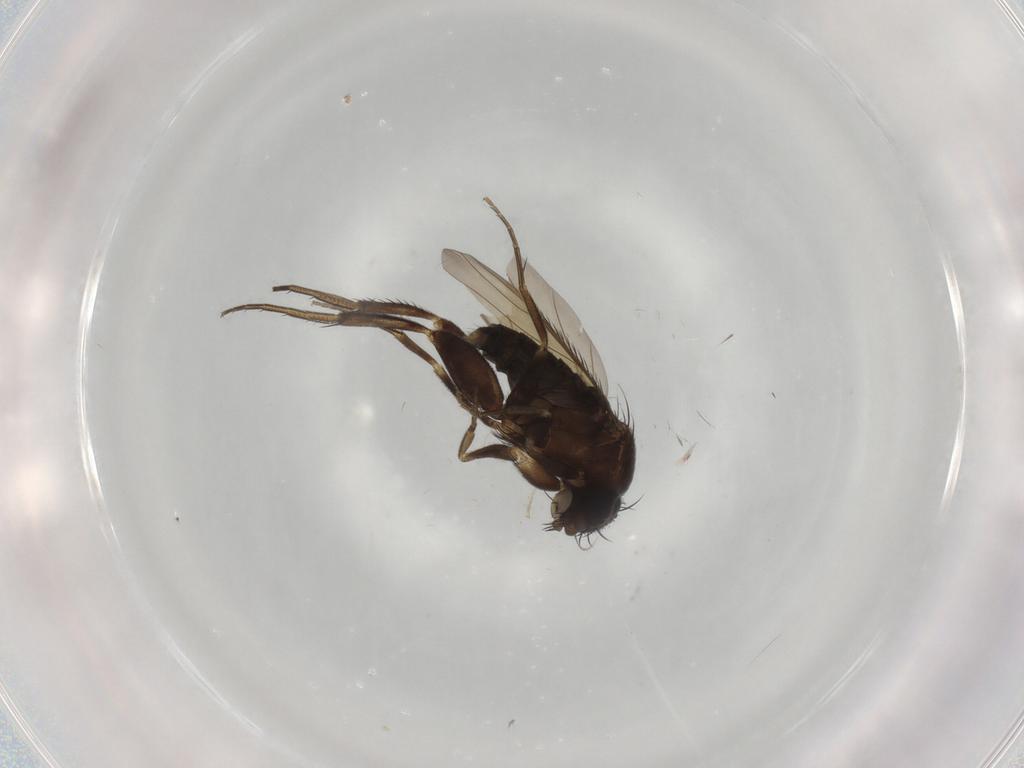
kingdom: Animalia
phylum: Arthropoda
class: Insecta
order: Diptera
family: Phoridae
